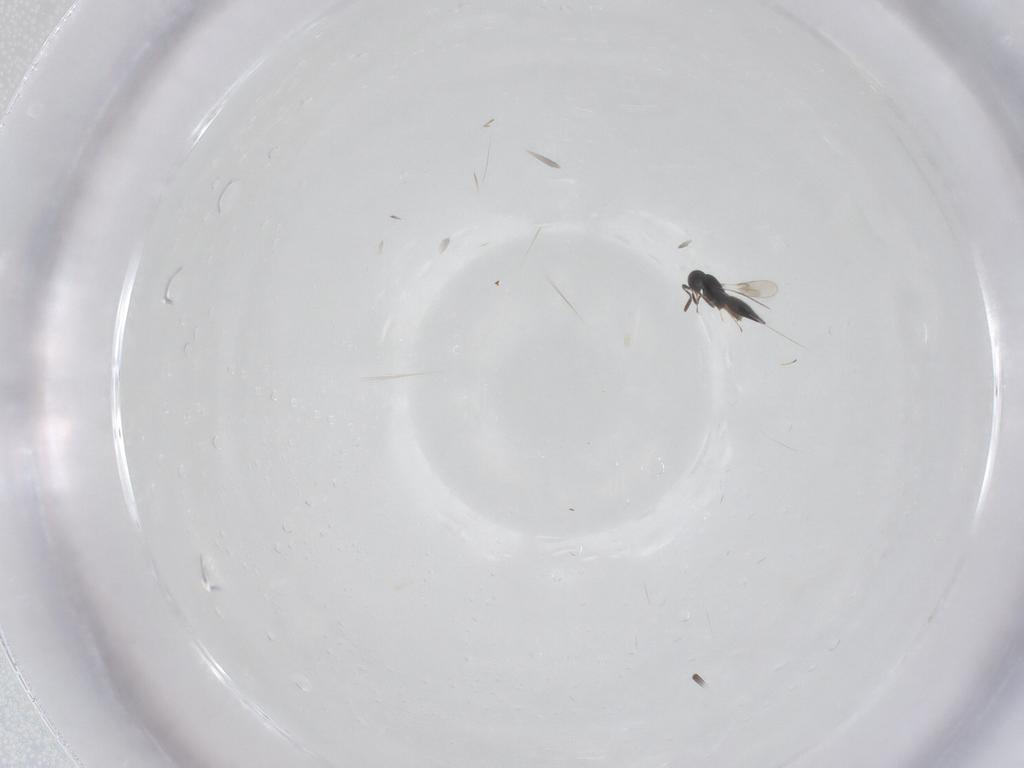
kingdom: Animalia
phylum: Arthropoda
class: Insecta
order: Hymenoptera
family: Scelionidae
